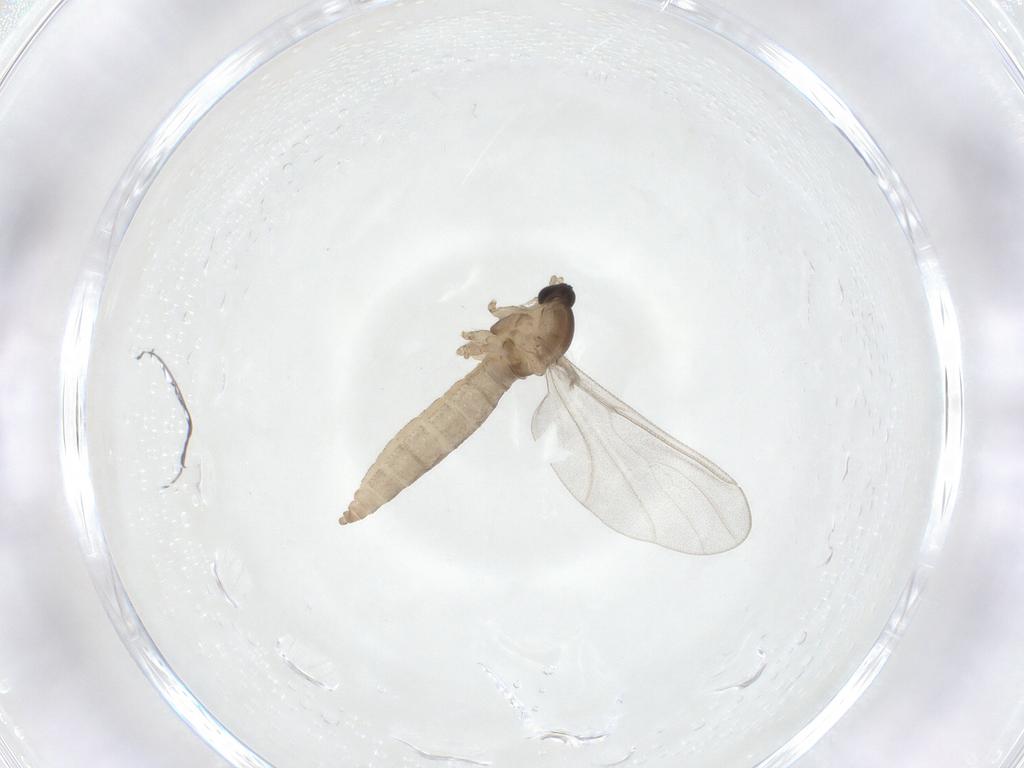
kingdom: Animalia
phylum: Arthropoda
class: Insecta
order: Diptera
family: Cecidomyiidae
